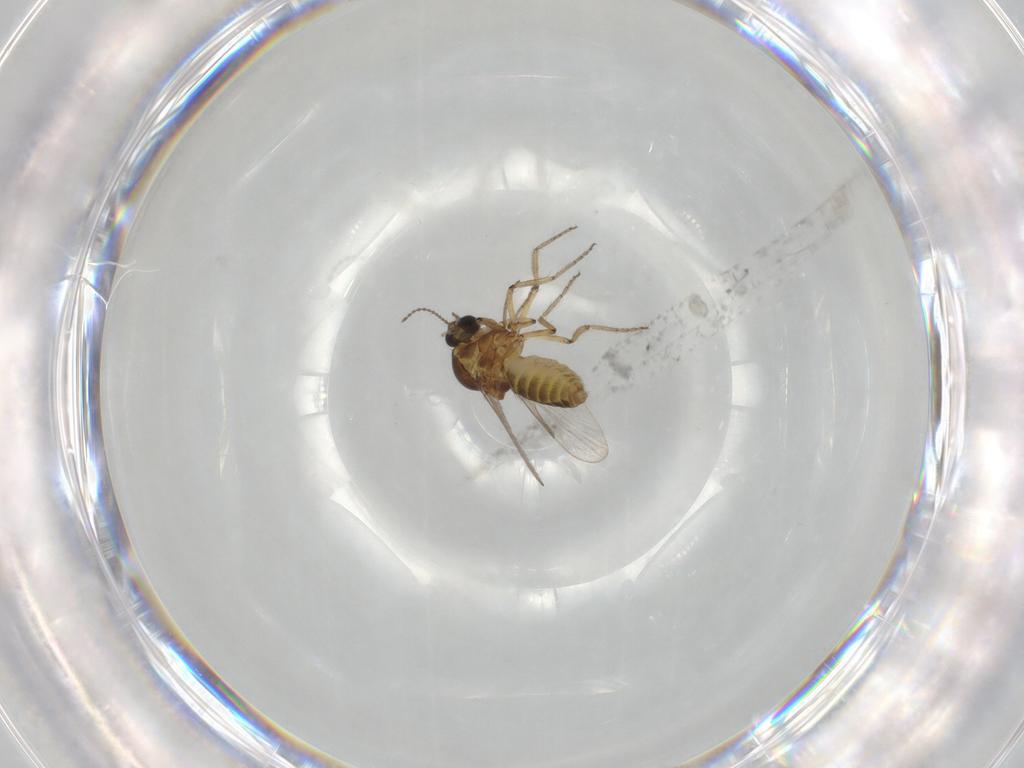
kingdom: Animalia
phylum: Arthropoda
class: Insecta
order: Diptera
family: Ceratopogonidae
